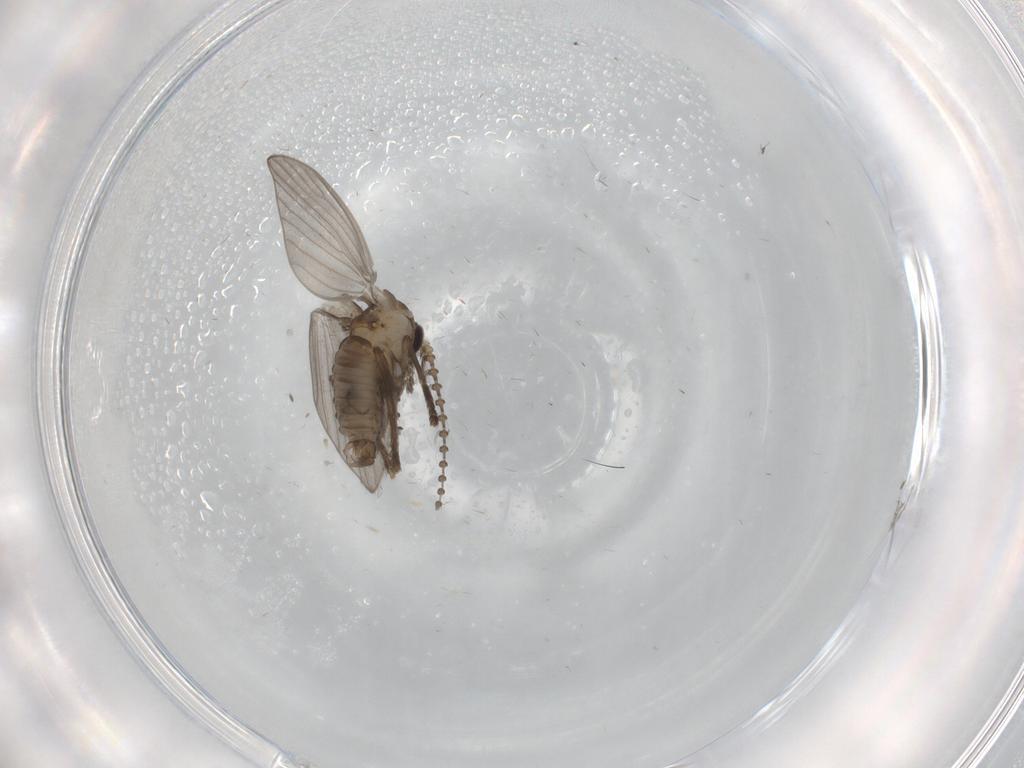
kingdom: Animalia
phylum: Arthropoda
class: Insecta
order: Diptera
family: Psychodidae
